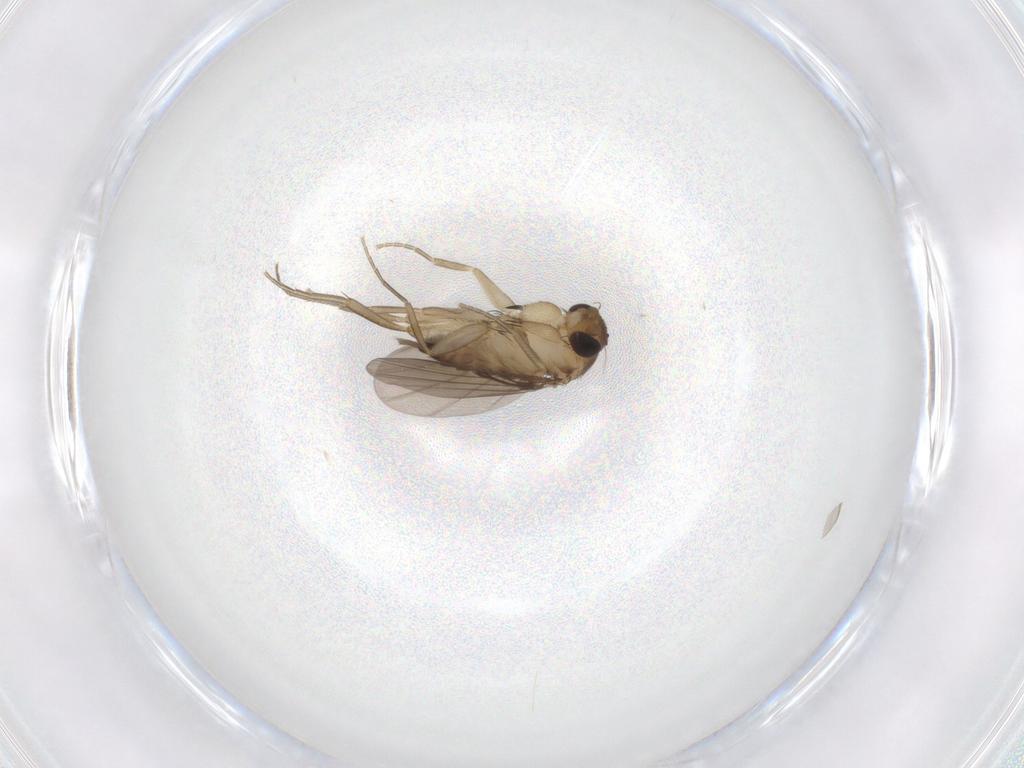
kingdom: Animalia
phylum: Arthropoda
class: Insecta
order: Diptera
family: Phoridae
